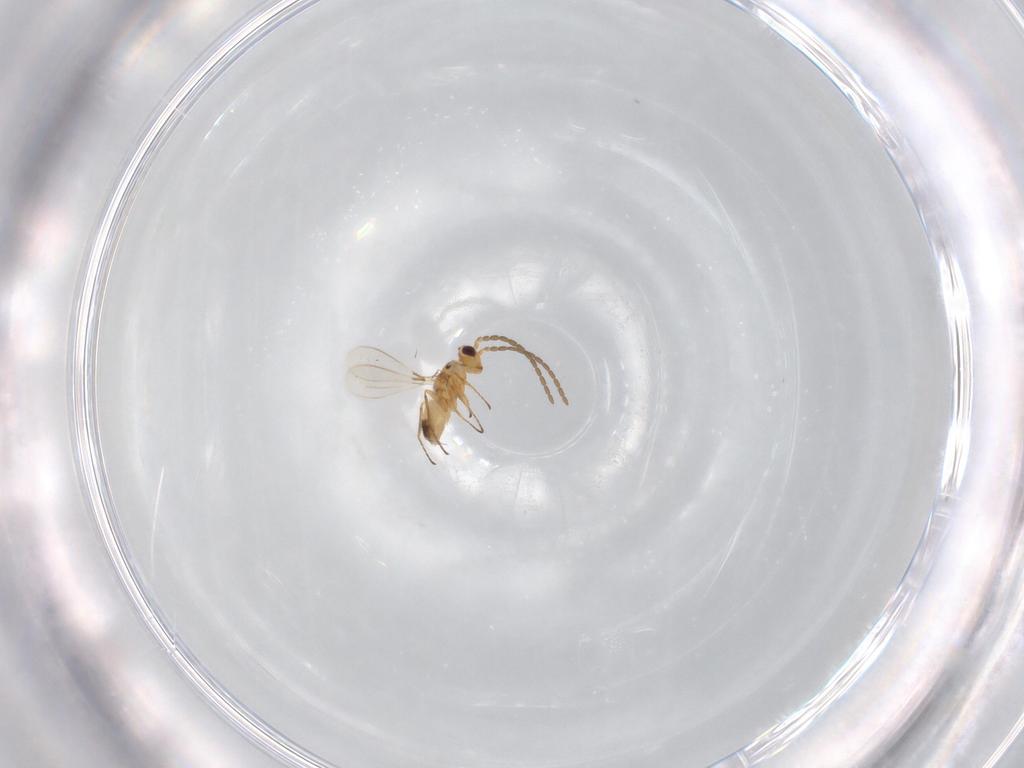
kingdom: Animalia
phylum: Arthropoda
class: Insecta
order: Hymenoptera
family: Mymaridae
